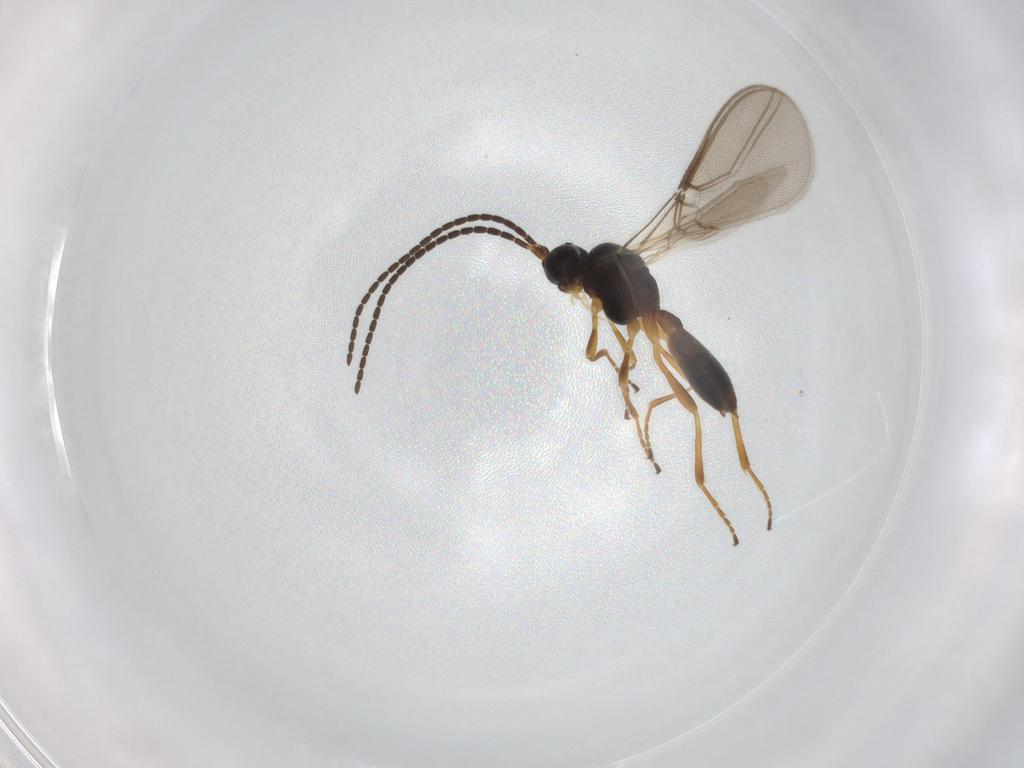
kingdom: Animalia
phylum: Arthropoda
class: Insecta
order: Hymenoptera
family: Braconidae
